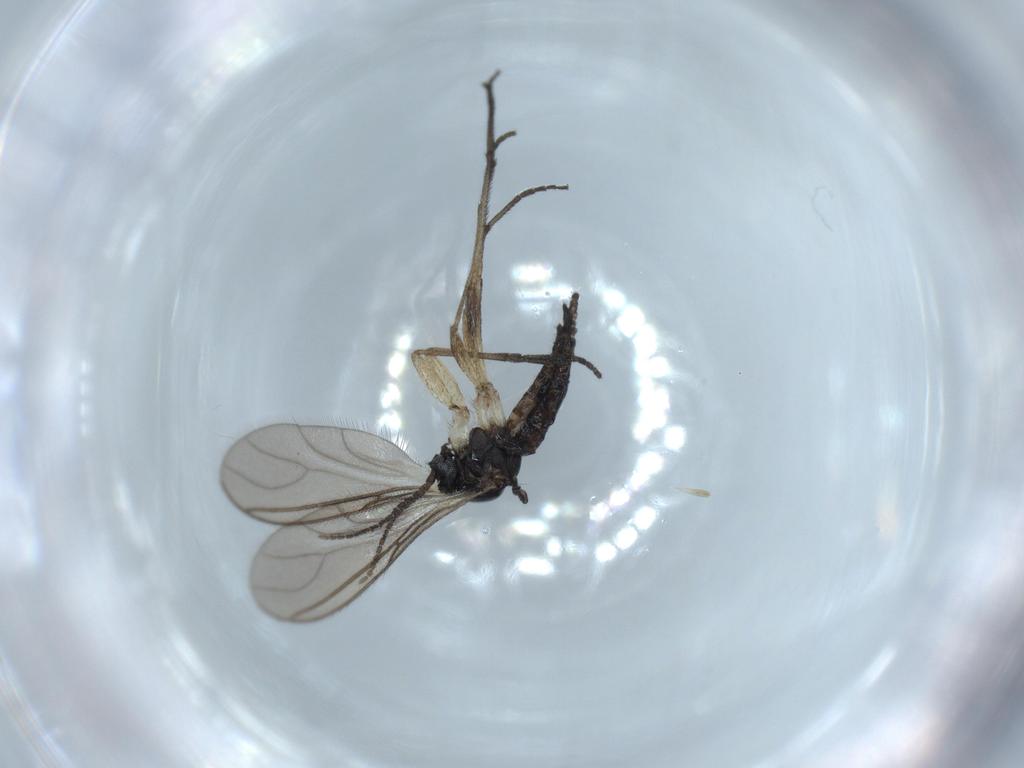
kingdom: Animalia
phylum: Arthropoda
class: Insecta
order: Diptera
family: Sciaridae
